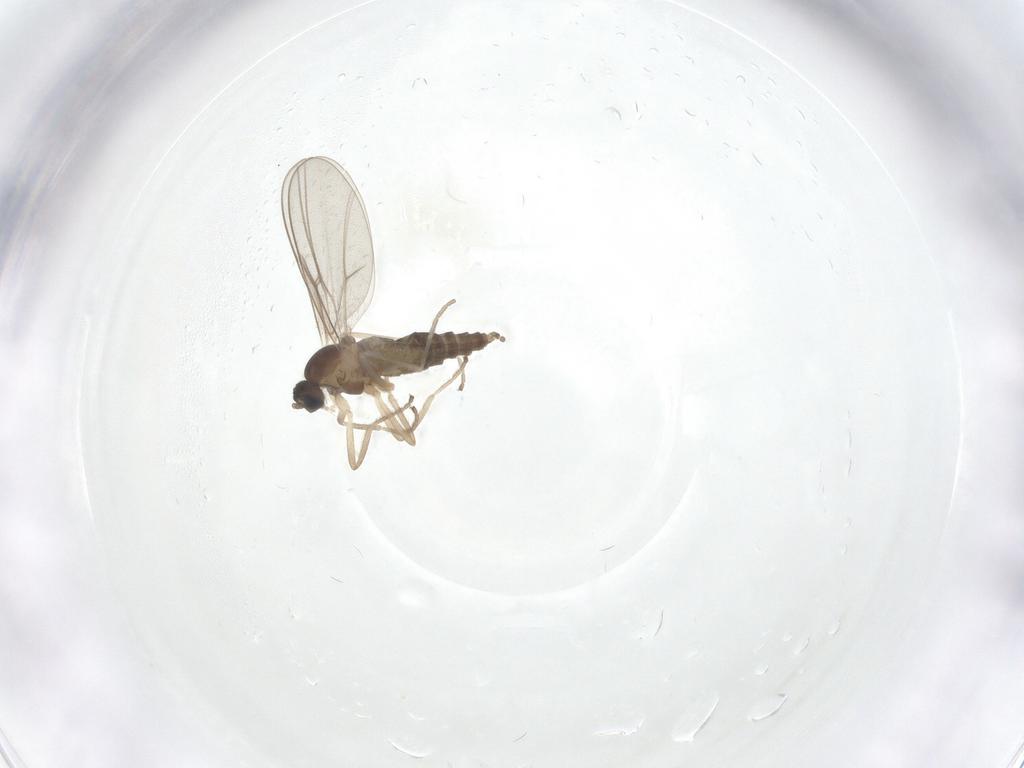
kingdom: Animalia
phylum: Arthropoda
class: Insecta
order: Diptera
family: Cecidomyiidae
